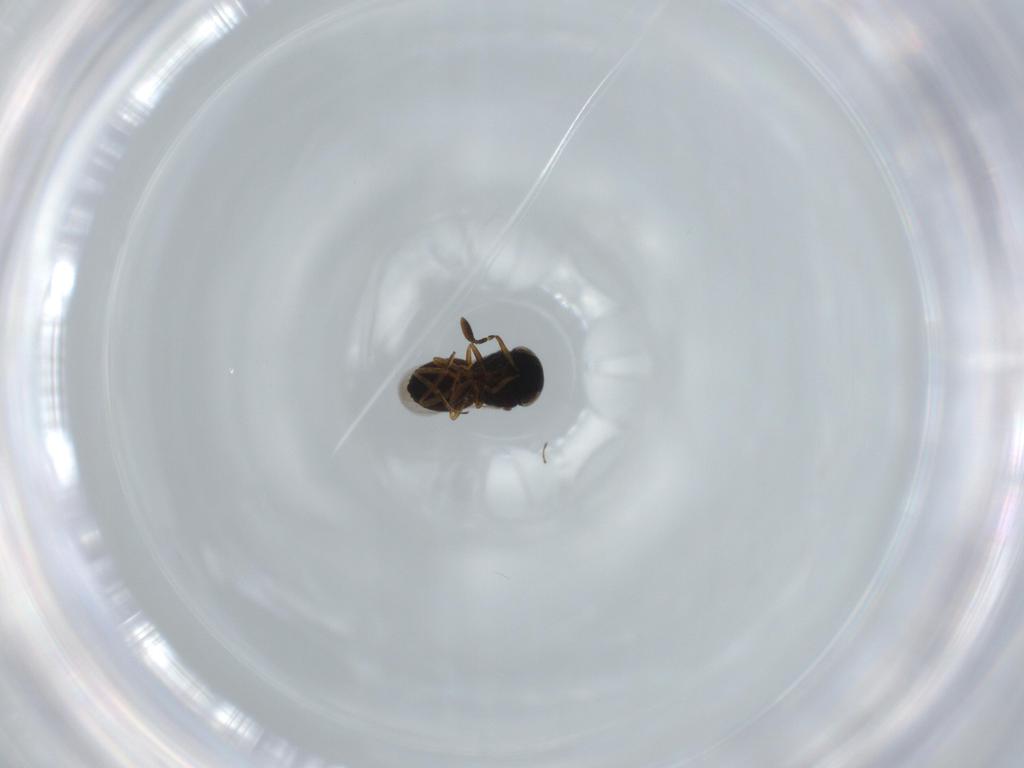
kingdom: Animalia
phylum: Arthropoda
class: Insecta
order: Hymenoptera
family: Scelionidae
